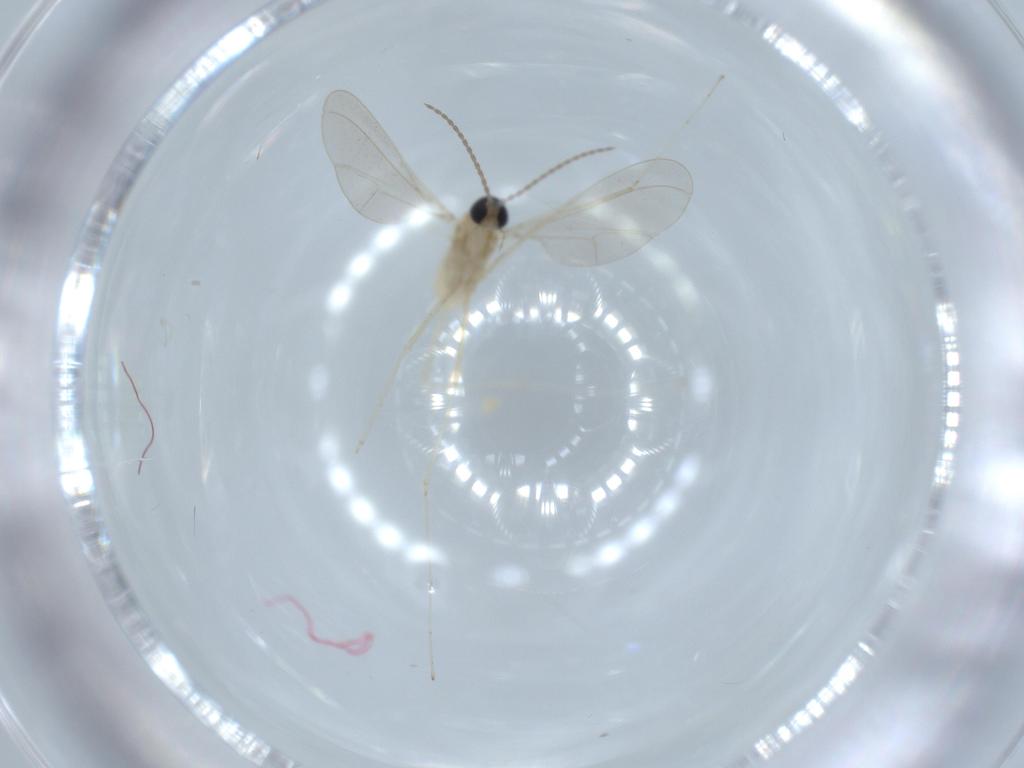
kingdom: Animalia
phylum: Arthropoda
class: Insecta
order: Diptera
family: Cecidomyiidae
